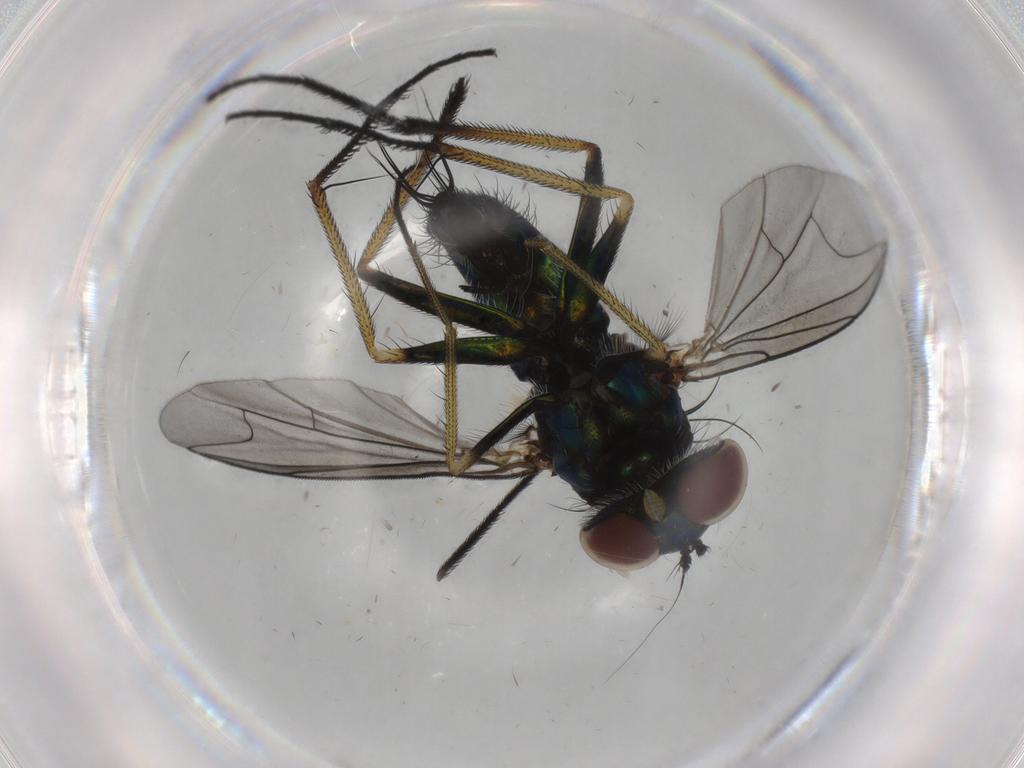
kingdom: Animalia
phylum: Arthropoda
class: Insecta
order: Diptera
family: Dolichopodidae
